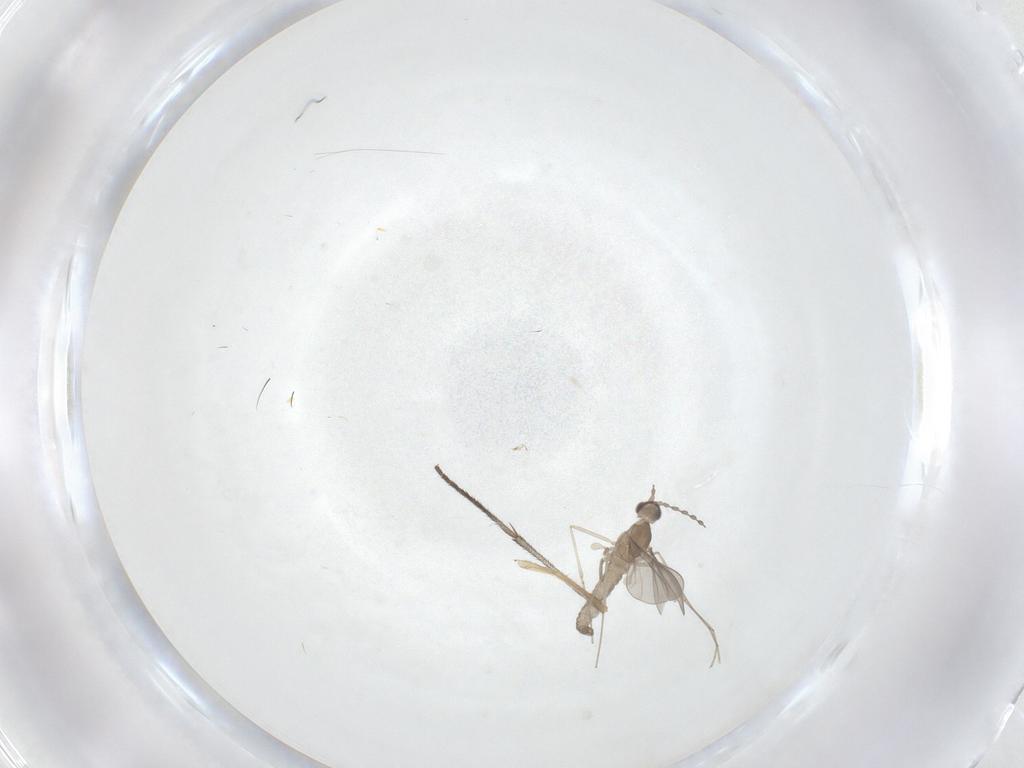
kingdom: Animalia
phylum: Arthropoda
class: Insecta
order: Diptera
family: Cecidomyiidae
